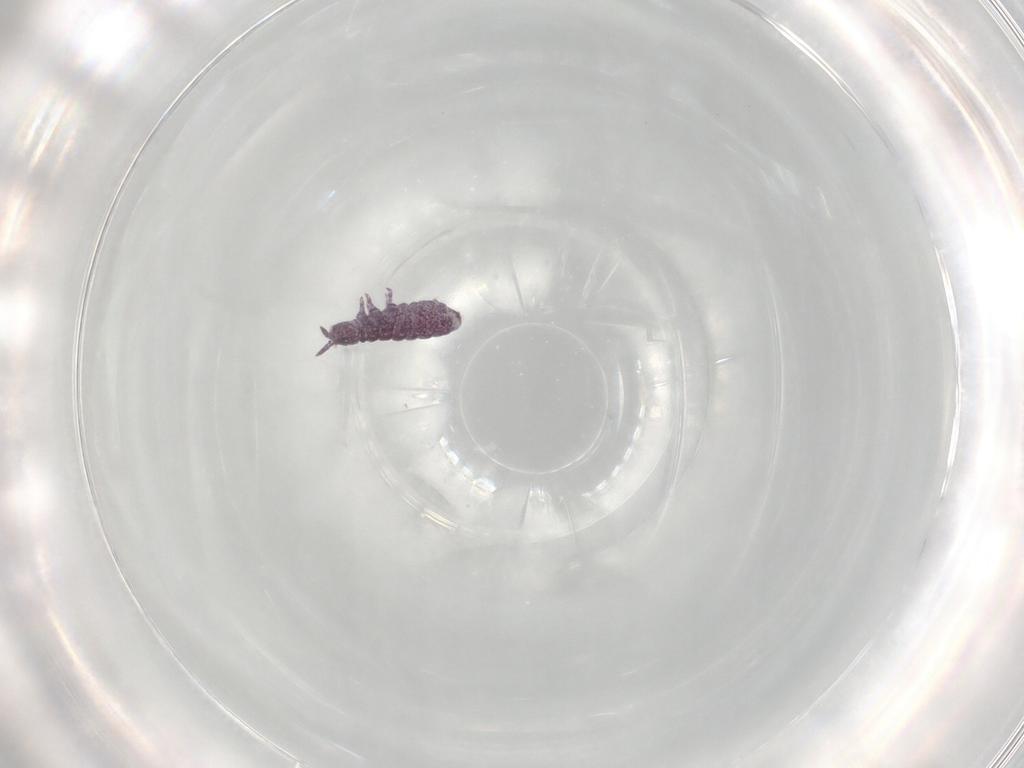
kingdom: Animalia
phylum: Arthropoda
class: Collembola
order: Poduromorpha
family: Brachystomellidae
